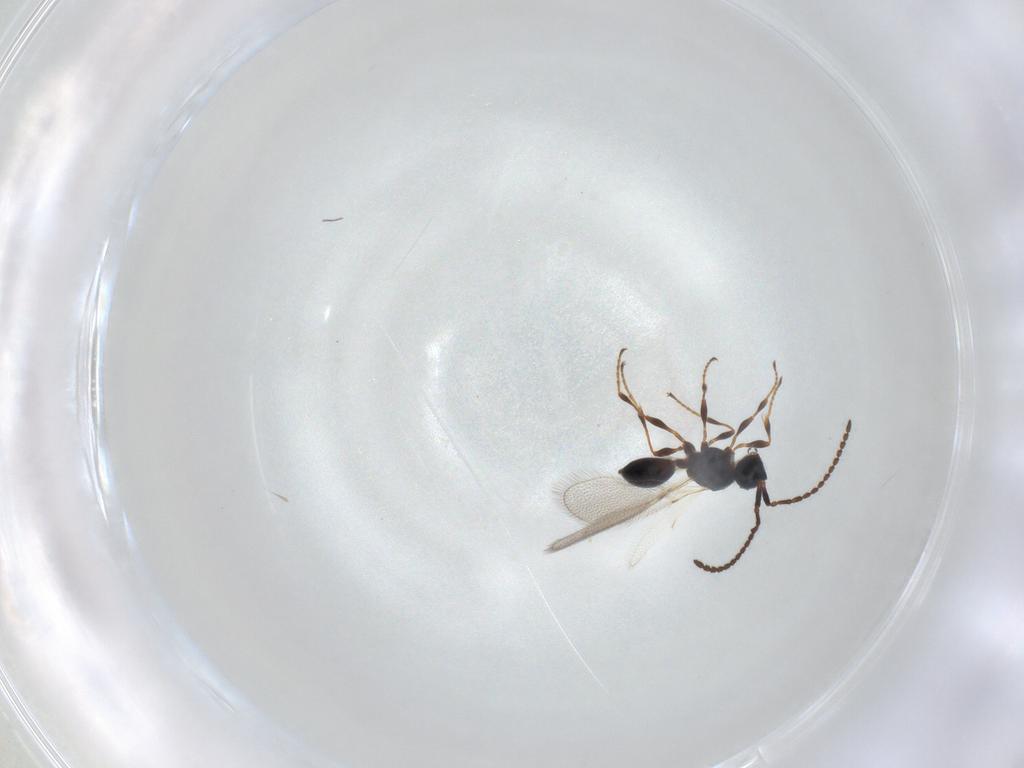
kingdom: Animalia
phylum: Arthropoda
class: Insecta
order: Hymenoptera
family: Diapriidae
